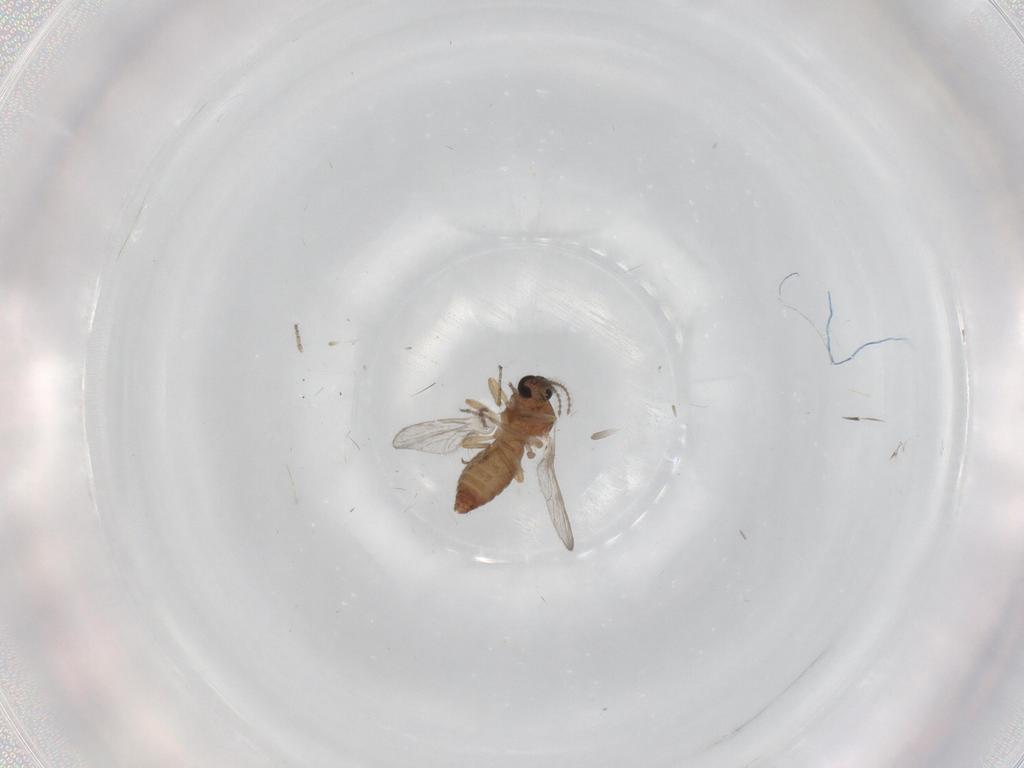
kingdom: Animalia
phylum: Arthropoda
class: Insecta
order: Diptera
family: Ceratopogonidae
